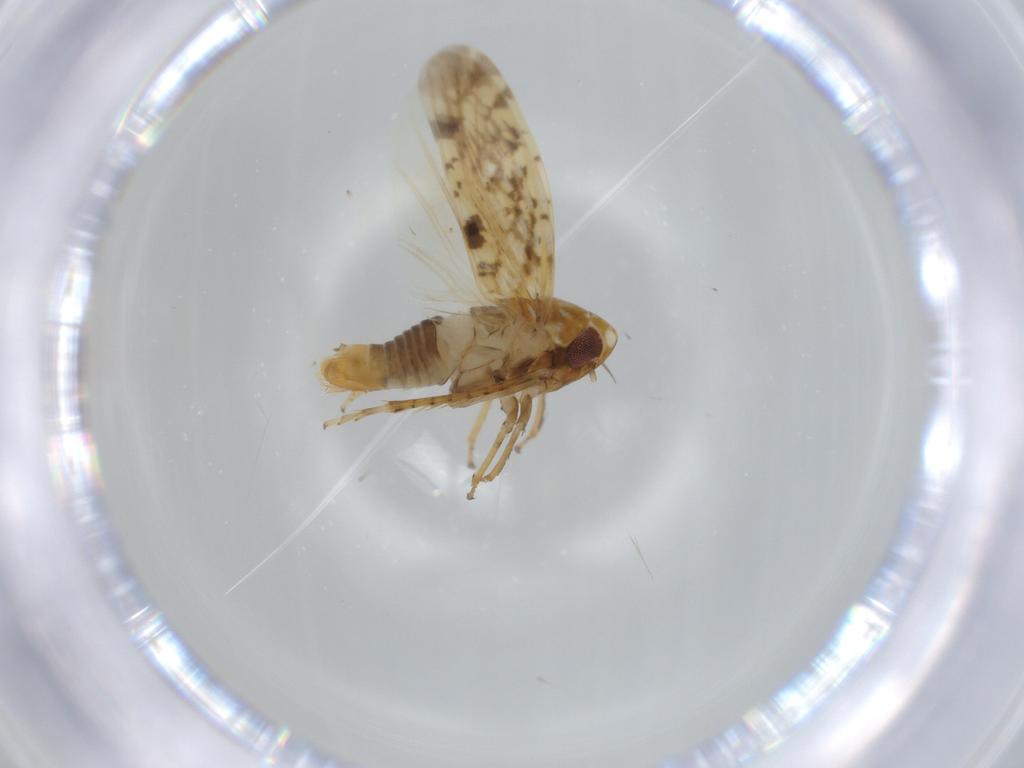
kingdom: Animalia
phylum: Arthropoda
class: Insecta
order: Hemiptera
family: Cicadellidae
